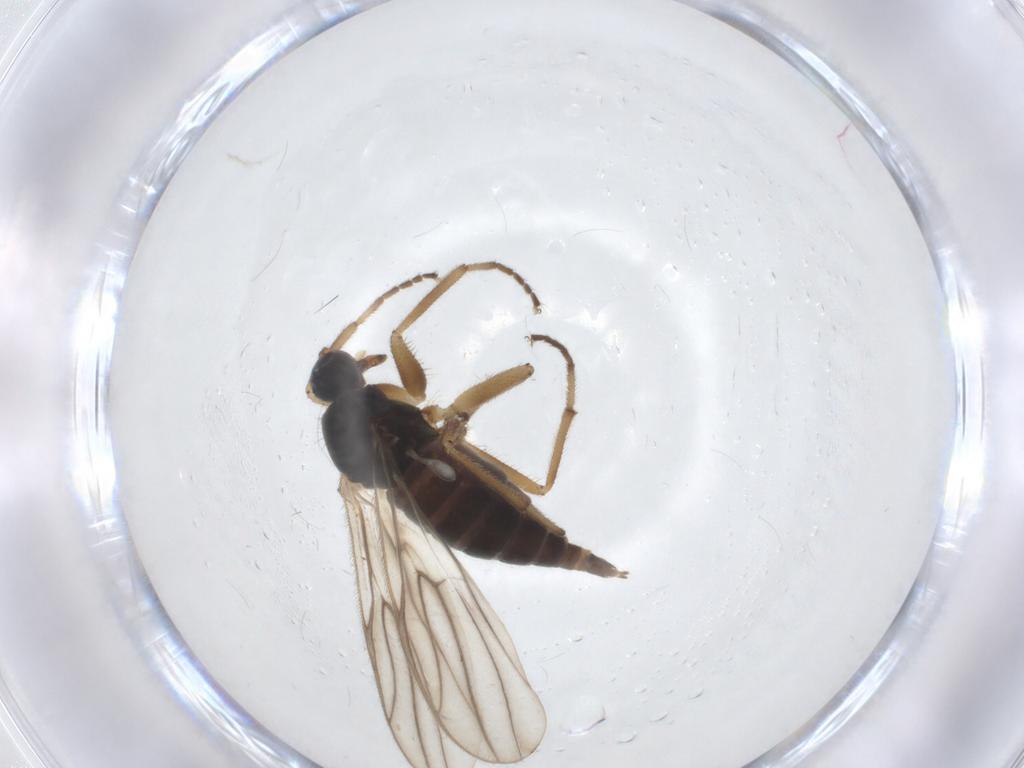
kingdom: Animalia
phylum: Arthropoda
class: Insecta
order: Diptera
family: Hybotidae
